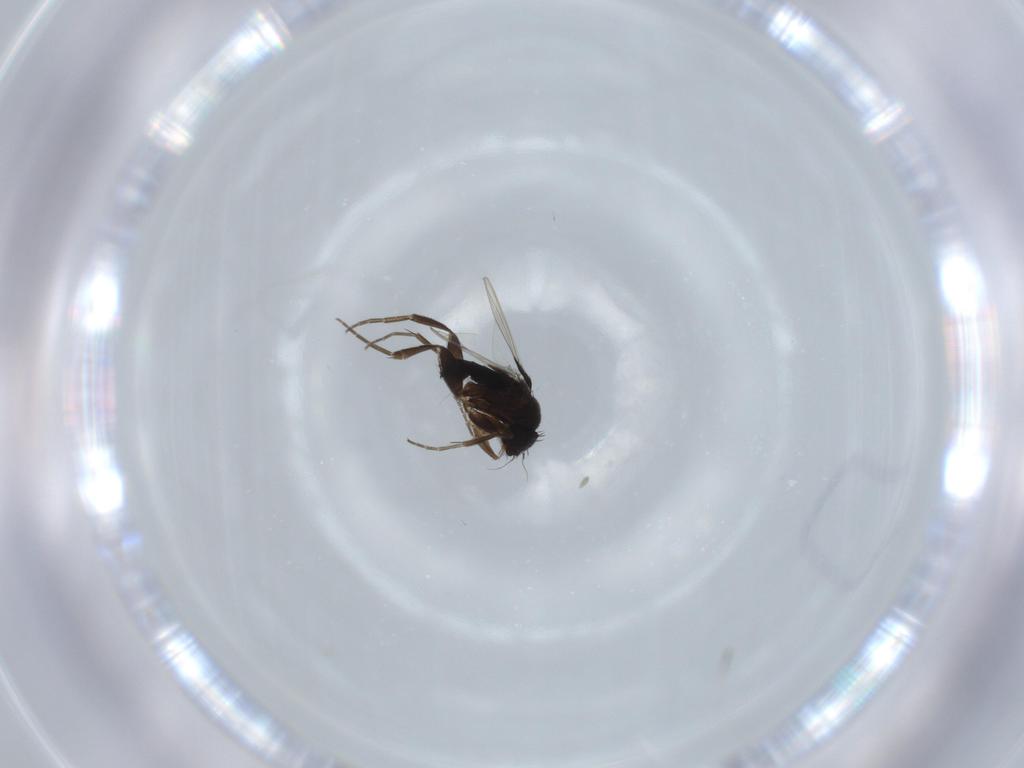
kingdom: Animalia
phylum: Arthropoda
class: Insecta
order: Diptera
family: Phoridae
